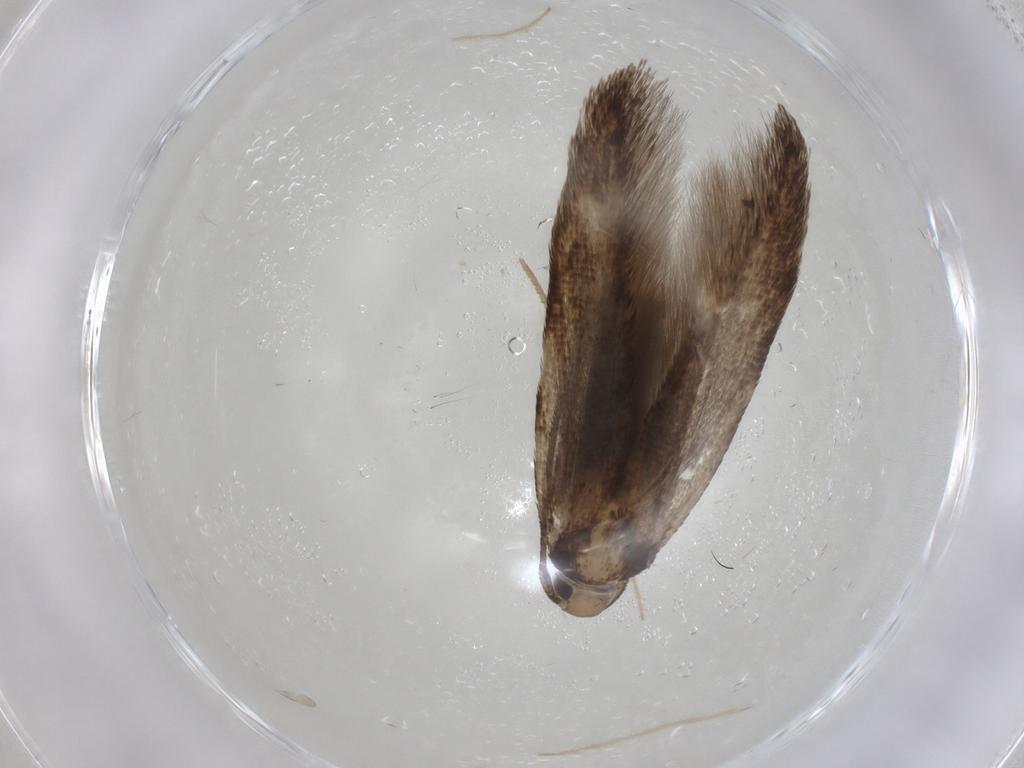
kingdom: Animalia
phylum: Arthropoda
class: Insecta
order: Lepidoptera
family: Cosmopterigidae
